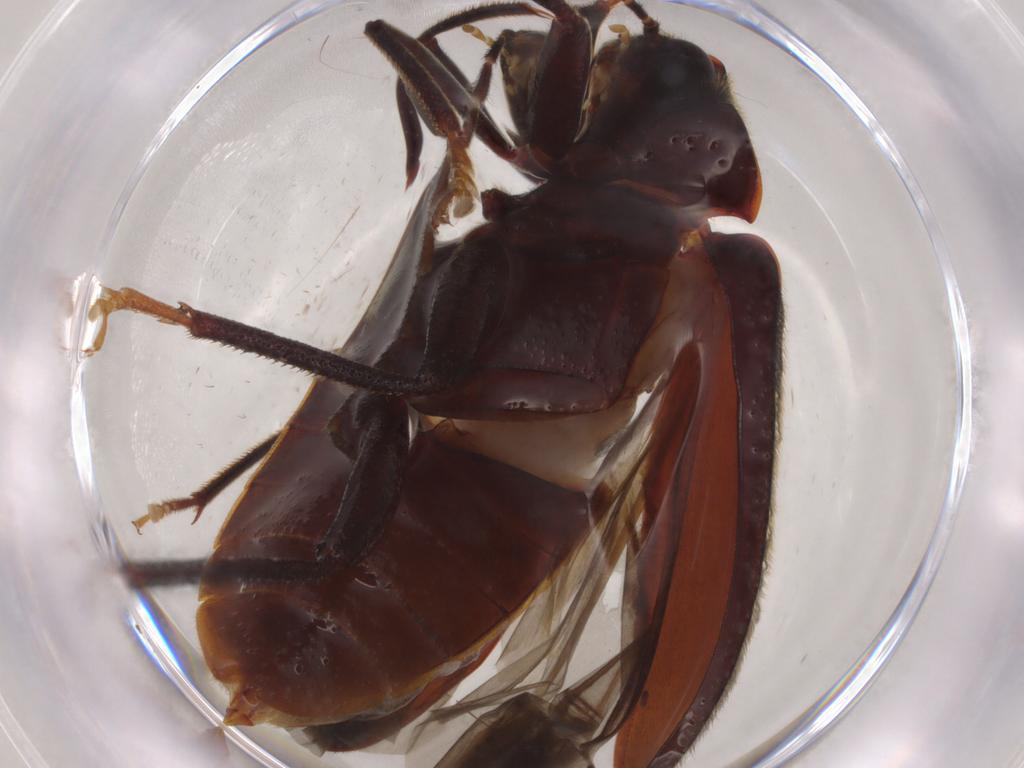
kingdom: Animalia
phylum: Arthropoda
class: Insecta
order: Coleoptera
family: Ptilodactylidae
